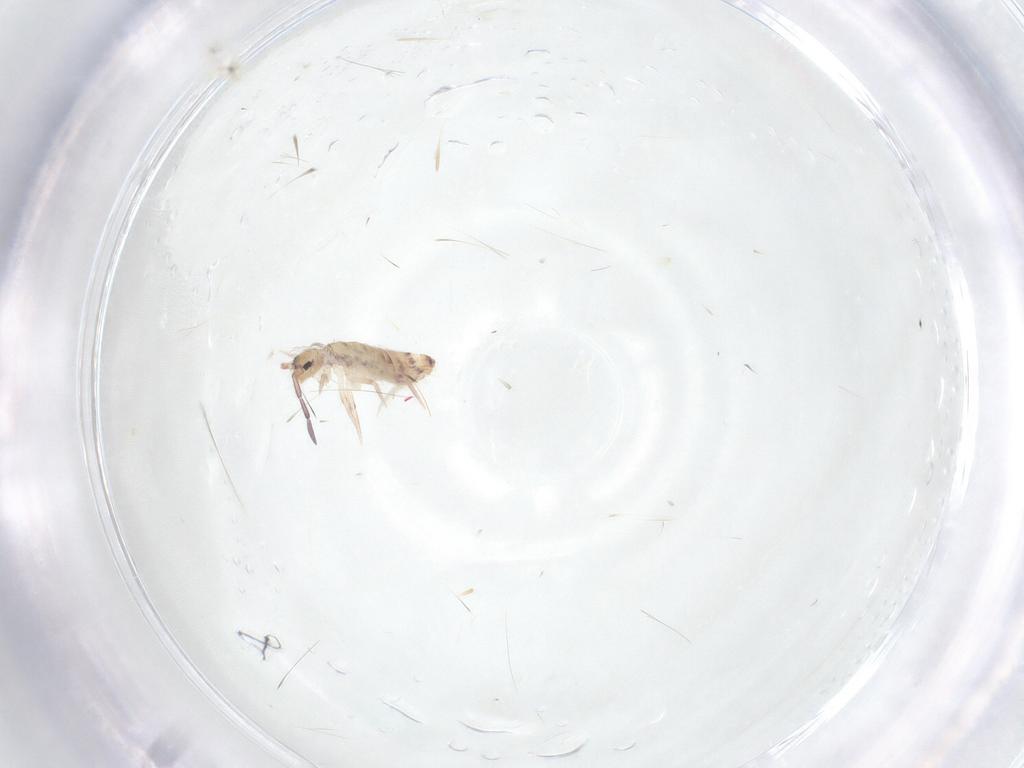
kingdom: Animalia
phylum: Arthropoda
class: Collembola
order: Entomobryomorpha
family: Entomobryidae
